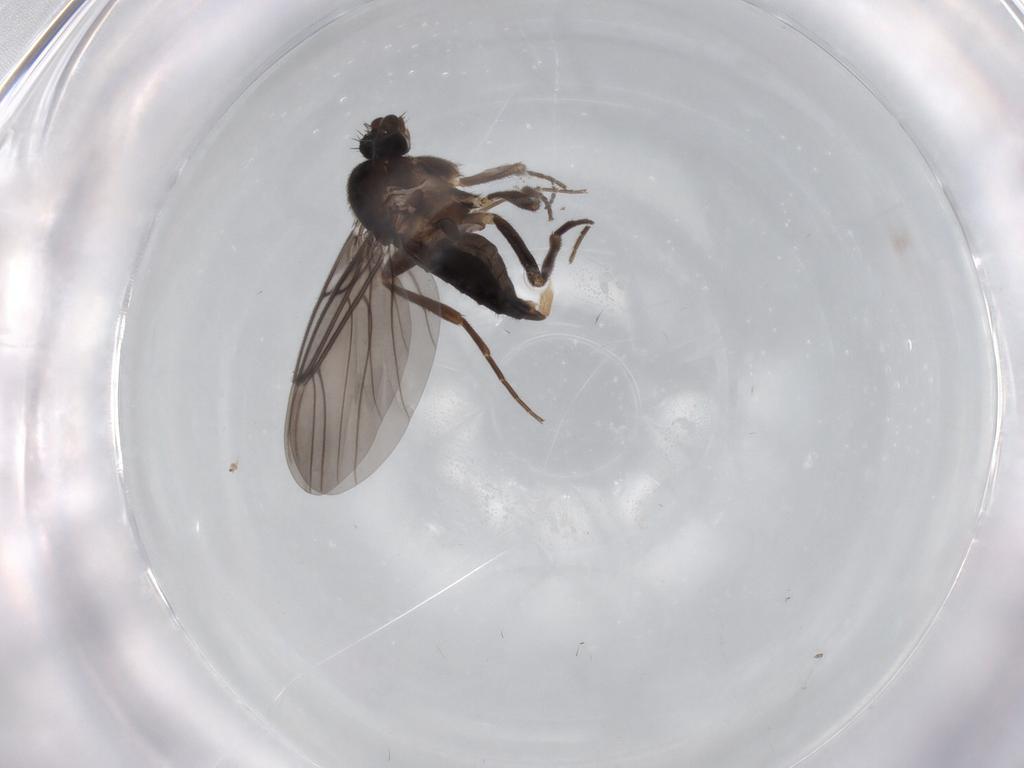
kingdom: Animalia
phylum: Arthropoda
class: Insecta
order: Diptera
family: Sciaridae
